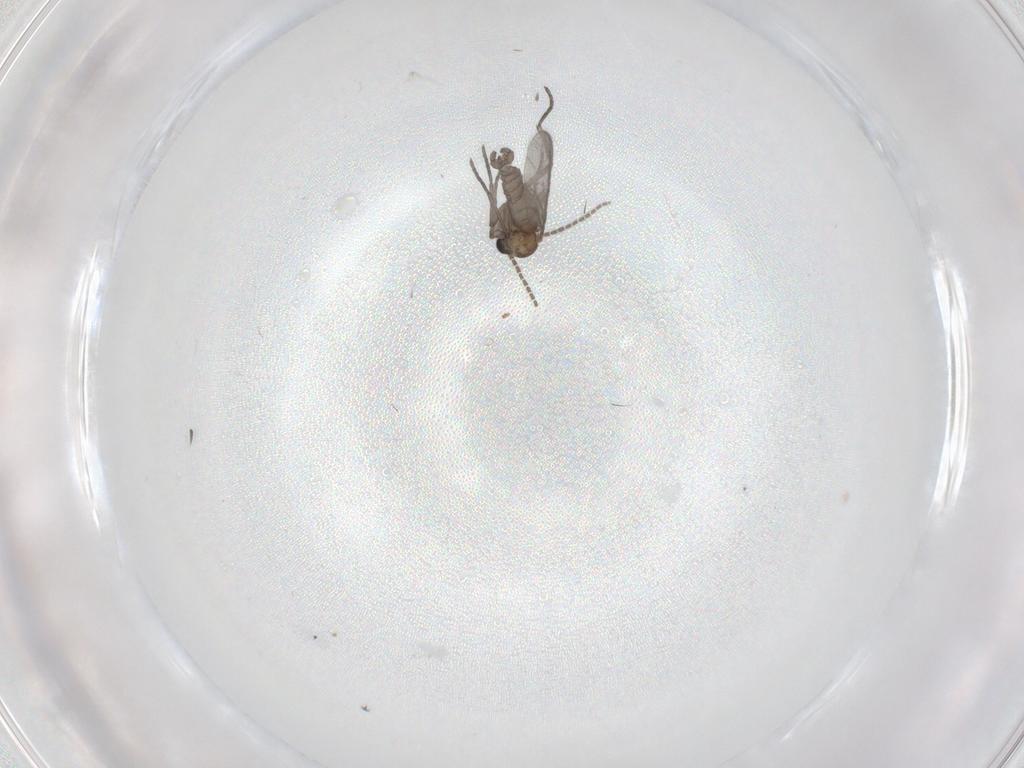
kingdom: Animalia
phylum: Arthropoda
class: Insecta
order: Diptera
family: Sciaridae
